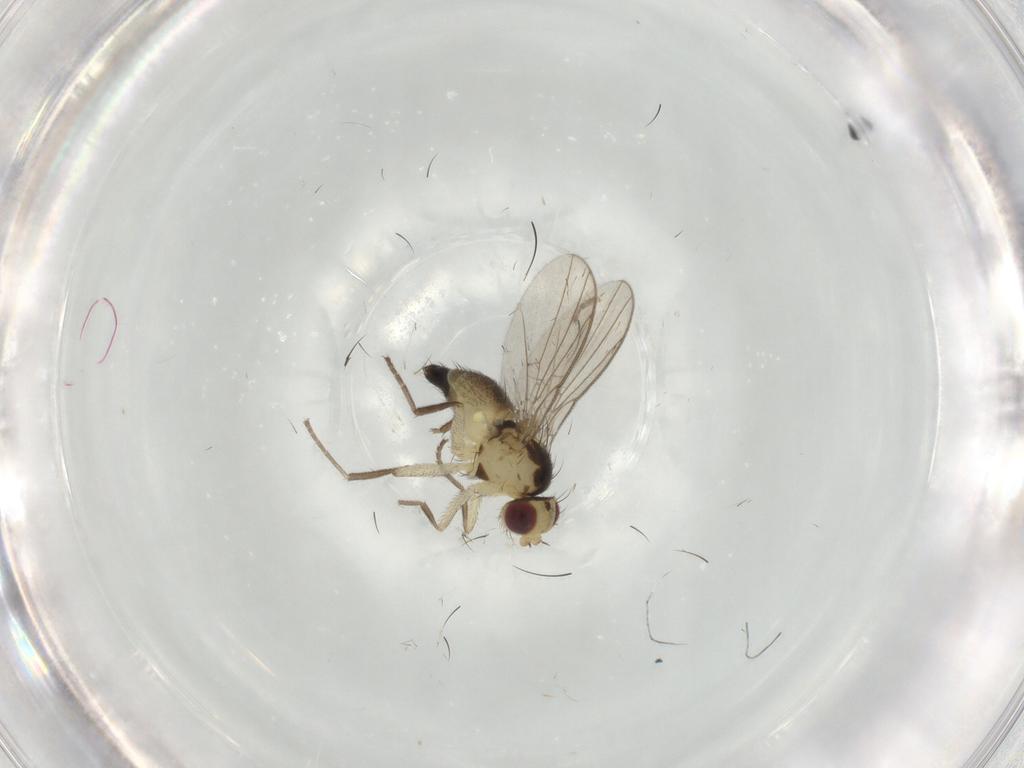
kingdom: Animalia
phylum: Arthropoda
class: Insecta
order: Diptera
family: Agromyzidae
